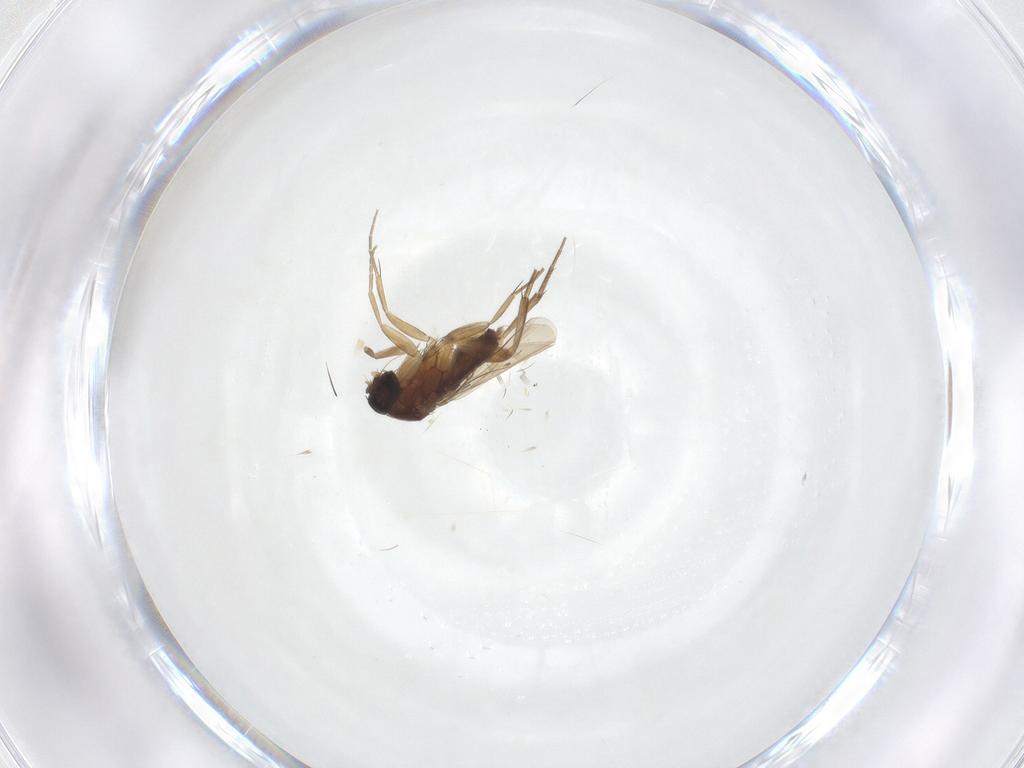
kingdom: Animalia
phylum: Arthropoda
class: Insecta
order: Diptera
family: Phoridae
